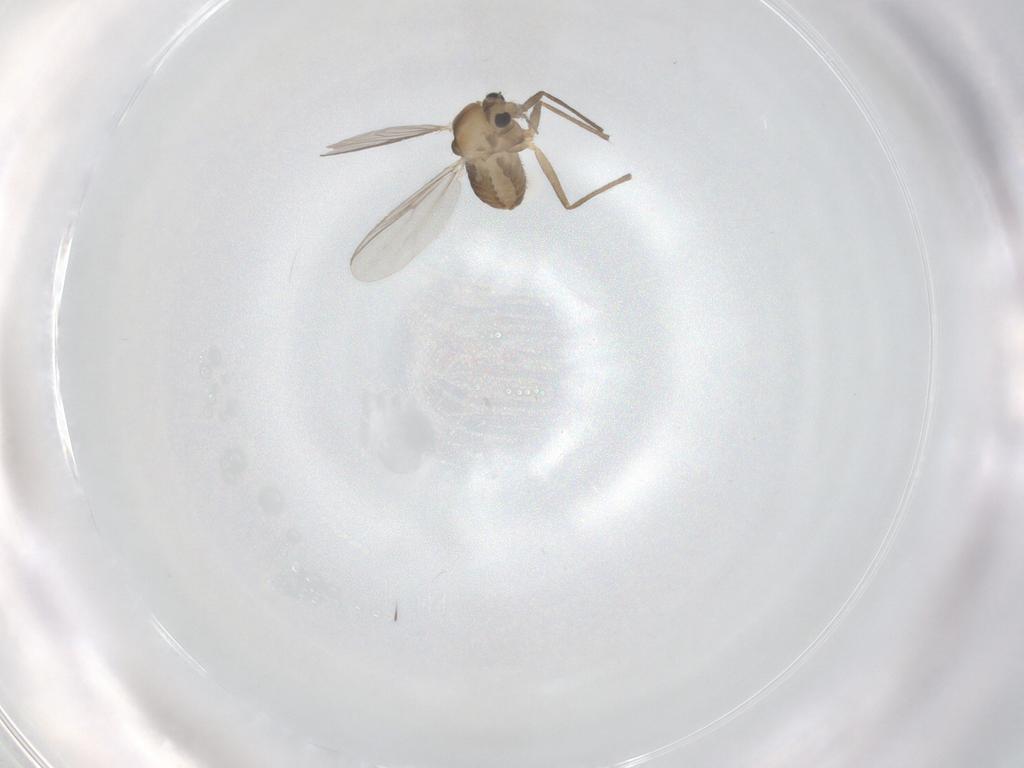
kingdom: Animalia
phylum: Arthropoda
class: Insecta
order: Diptera
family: Chironomidae
